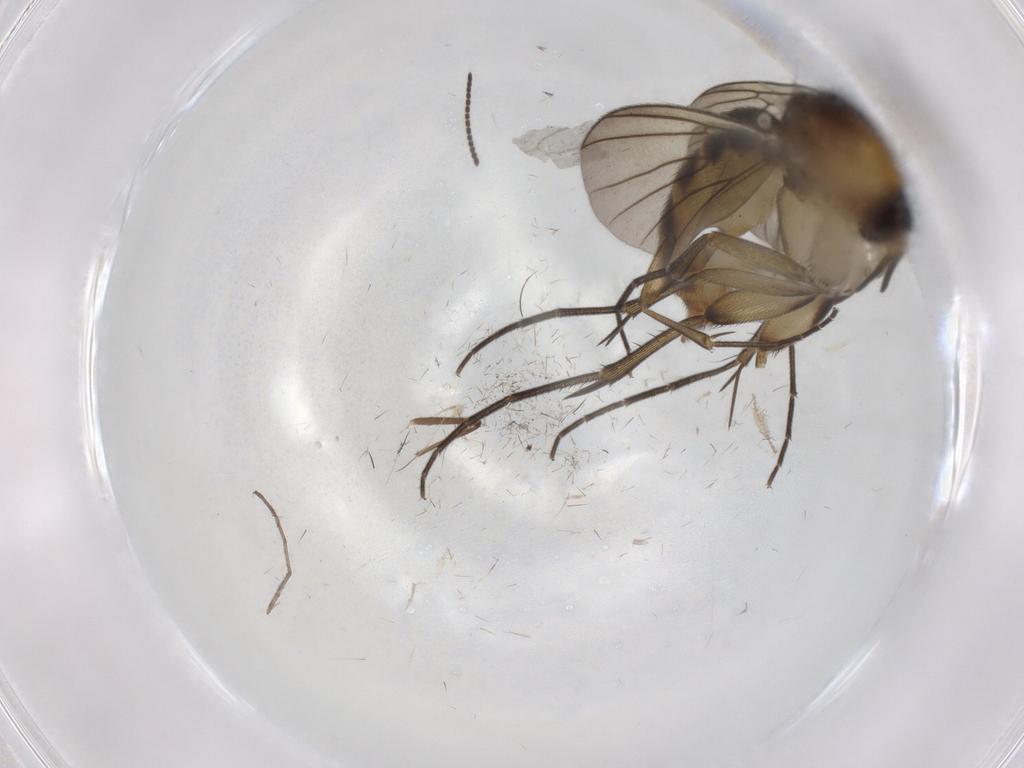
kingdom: Animalia
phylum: Arthropoda
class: Insecta
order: Diptera
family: Mycetophilidae
